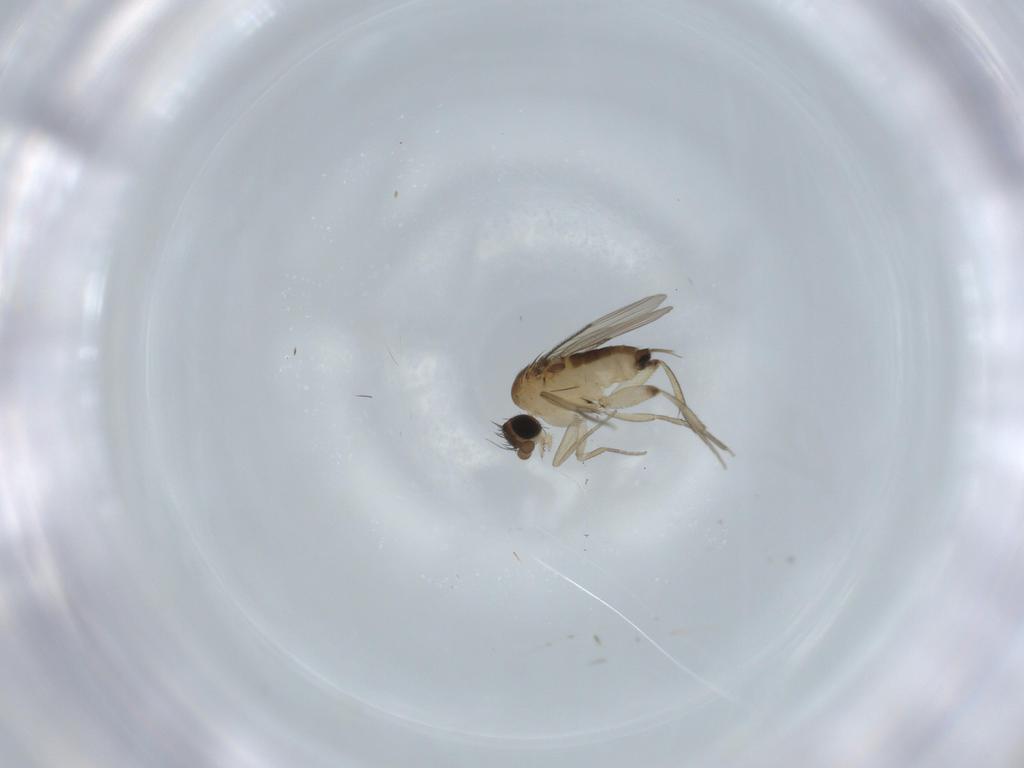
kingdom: Animalia
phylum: Arthropoda
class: Insecta
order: Diptera
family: Phoridae
